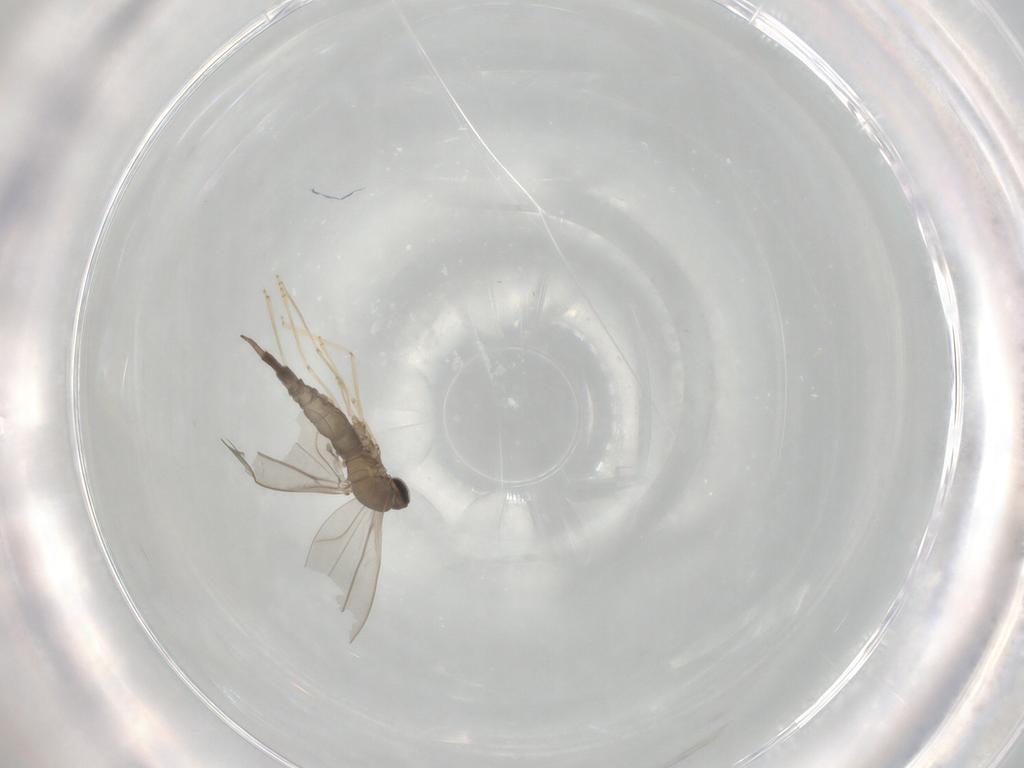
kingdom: Animalia
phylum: Arthropoda
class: Insecta
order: Diptera
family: Cecidomyiidae
